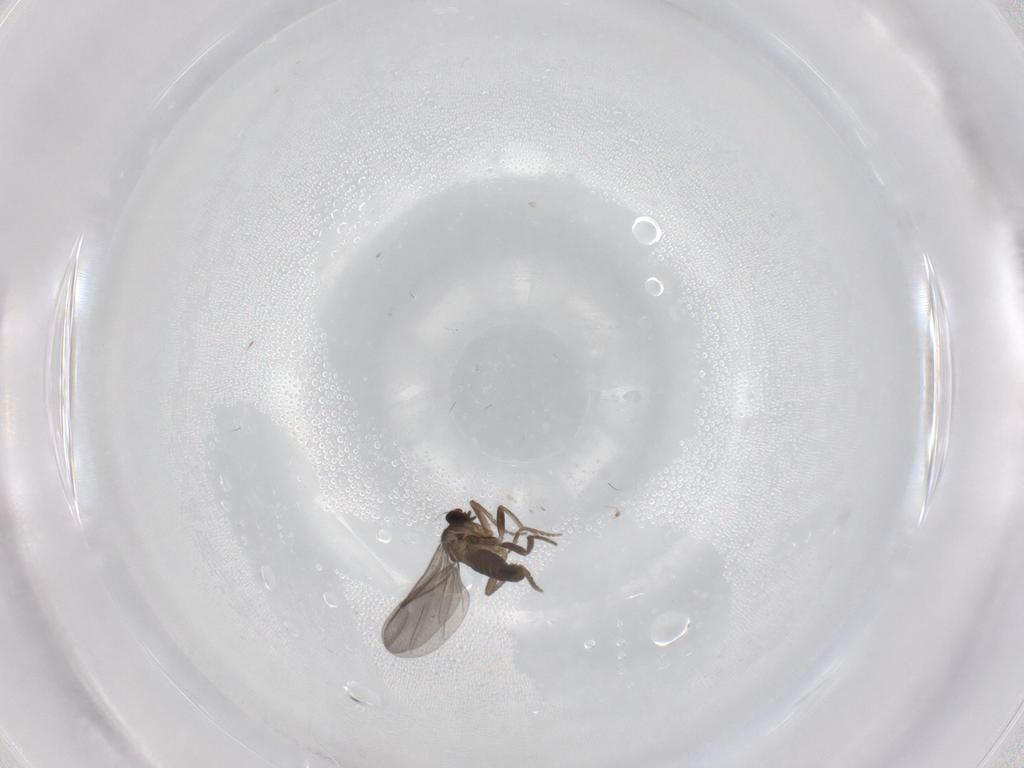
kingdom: Animalia
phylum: Arthropoda
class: Insecta
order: Diptera
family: Phoridae
